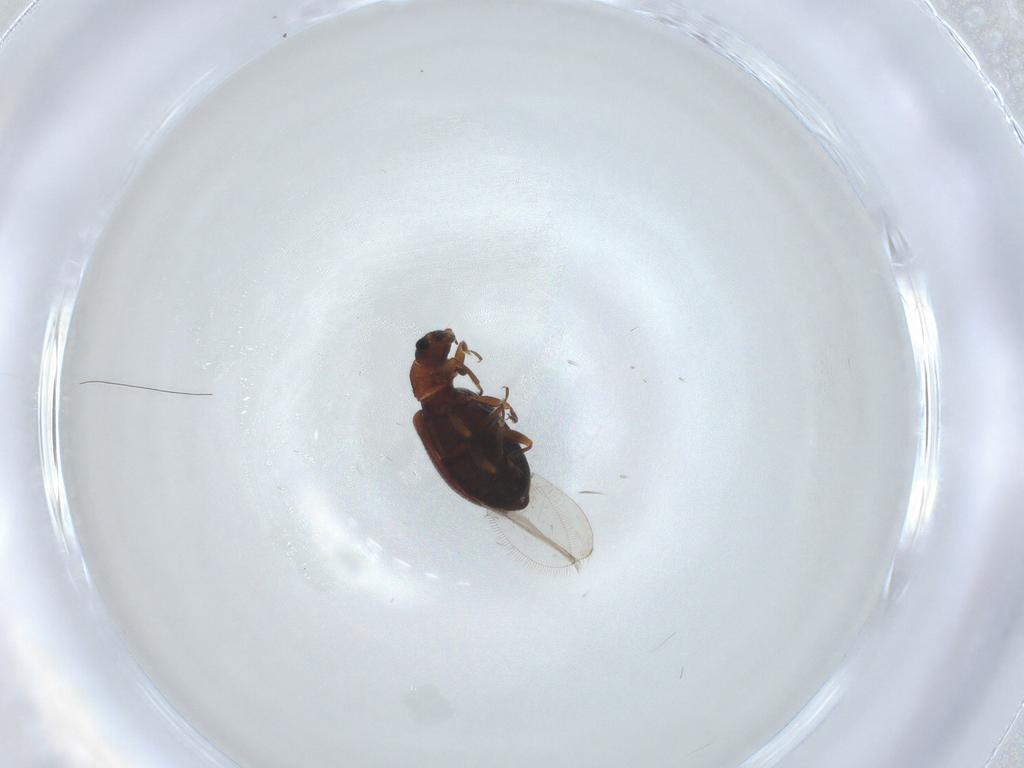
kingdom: Animalia
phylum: Arthropoda
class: Insecta
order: Coleoptera
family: Latridiidae
